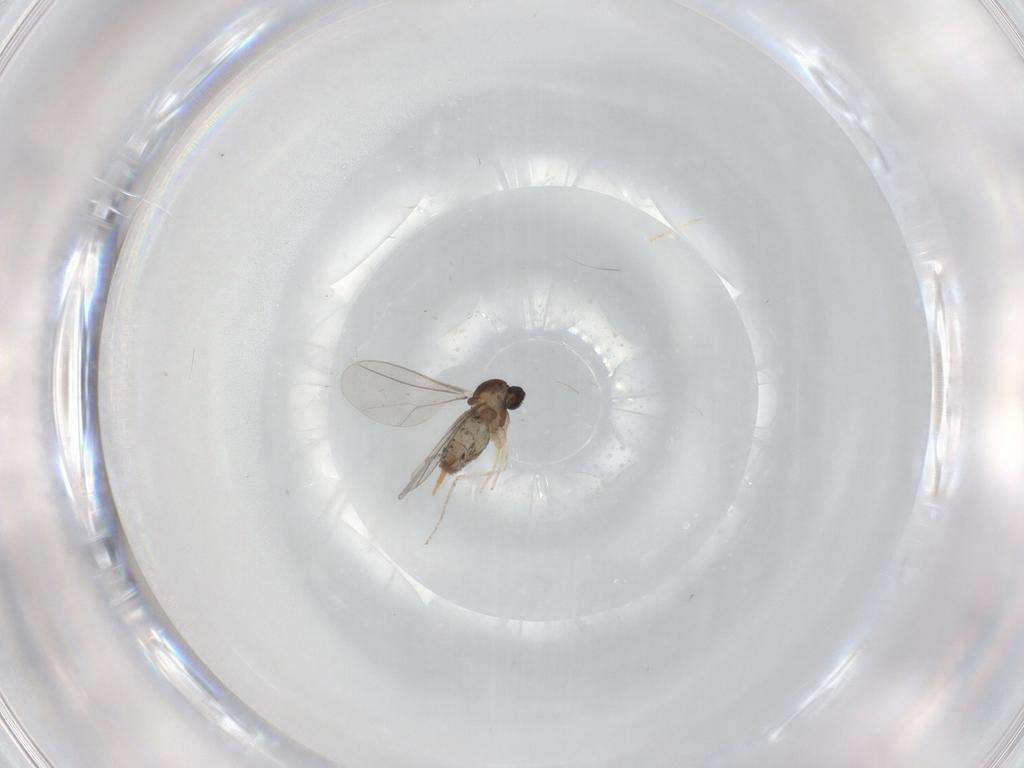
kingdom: Animalia
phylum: Arthropoda
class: Insecta
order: Diptera
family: Cecidomyiidae
